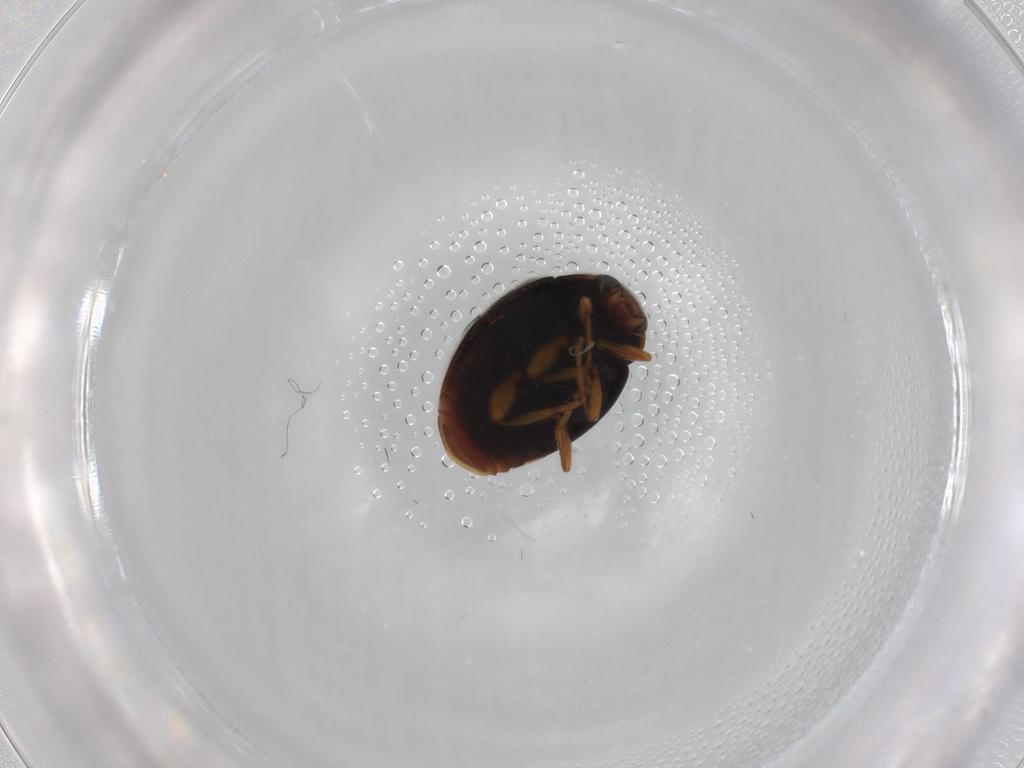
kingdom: Animalia
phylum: Arthropoda
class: Insecta
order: Coleoptera
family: Coccinellidae
